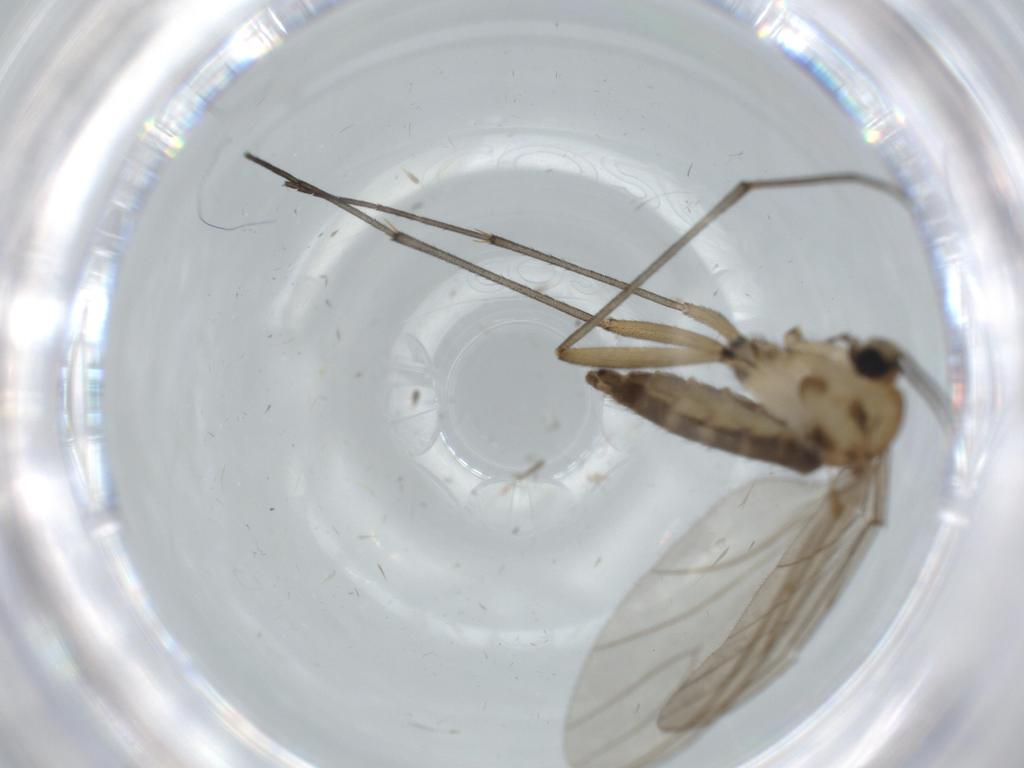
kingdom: Animalia
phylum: Arthropoda
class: Insecta
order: Diptera
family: Sciaridae
